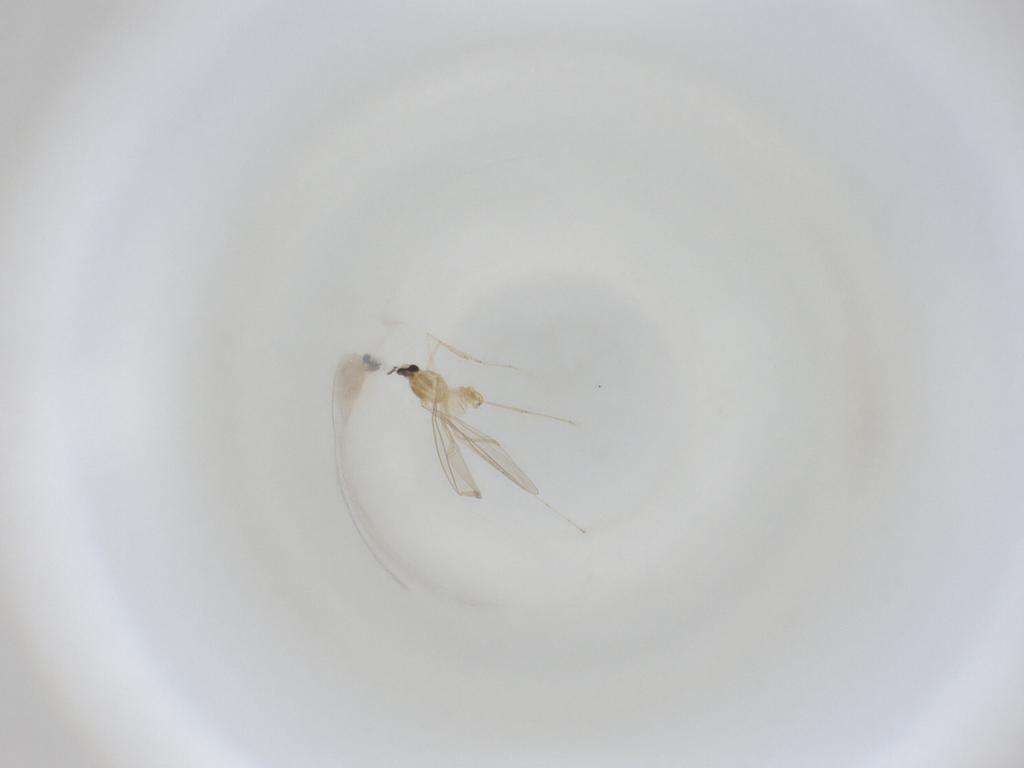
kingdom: Animalia
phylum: Arthropoda
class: Insecta
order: Diptera
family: Cecidomyiidae
